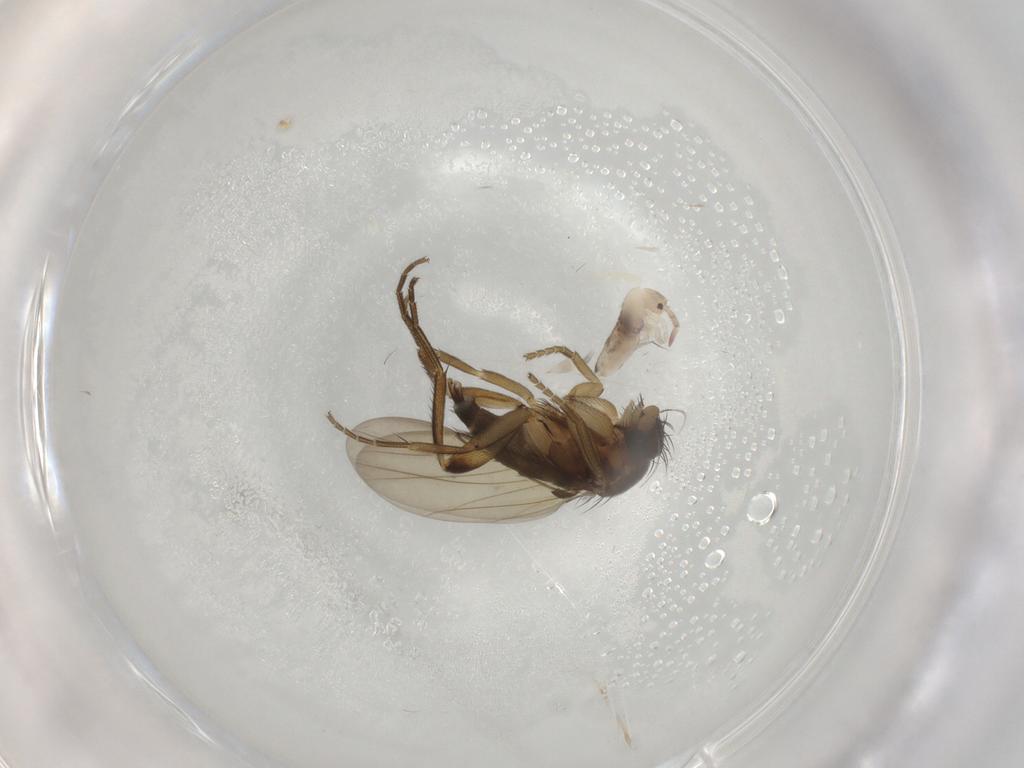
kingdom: Animalia
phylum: Arthropoda
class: Insecta
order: Diptera
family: Phoridae
